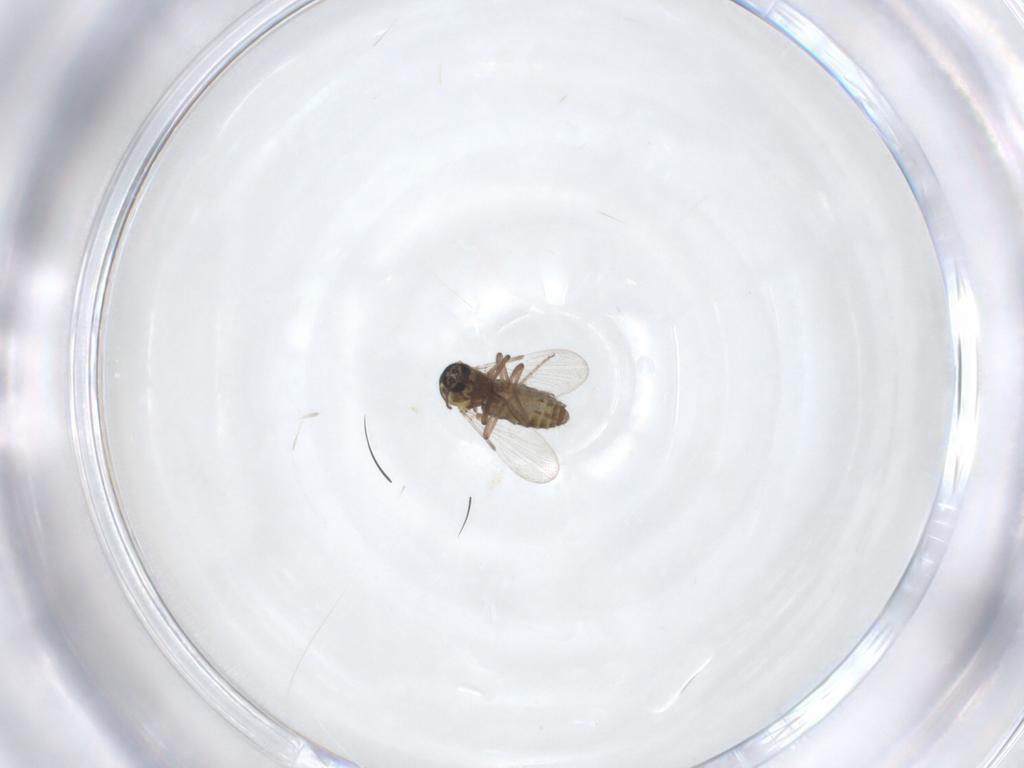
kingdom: Animalia
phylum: Arthropoda
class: Insecta
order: Diptera
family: Ceratopogonidae
